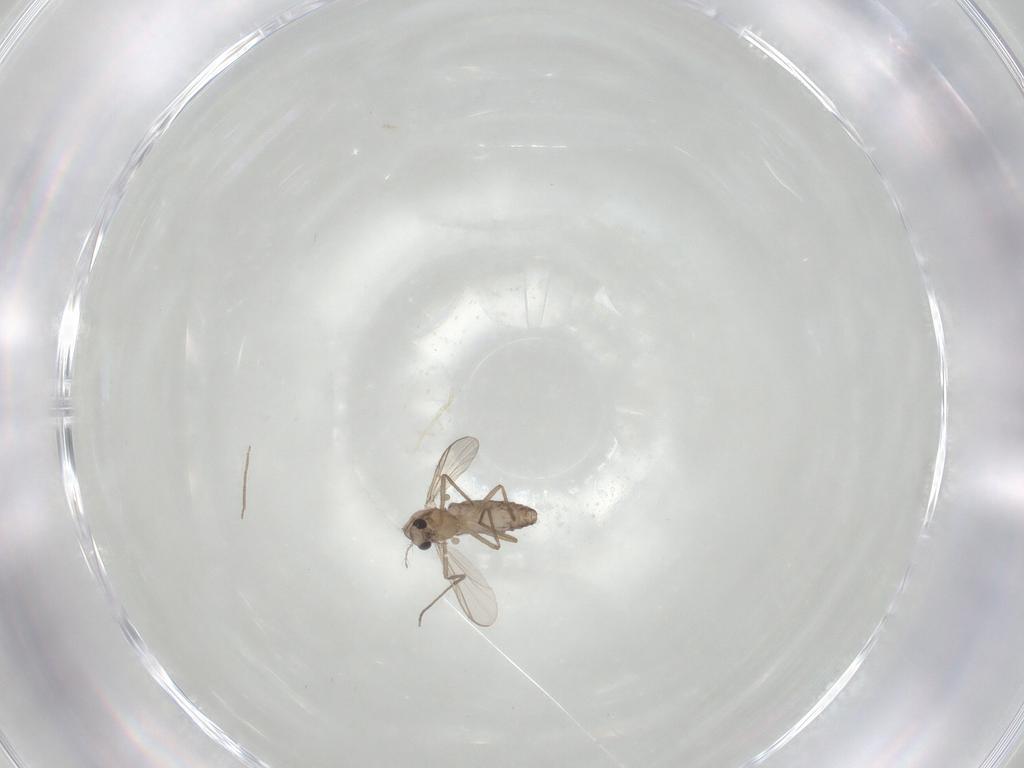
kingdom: Animalia
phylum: Arthropoda
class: Insecta
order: Diptera
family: Chironomidae
